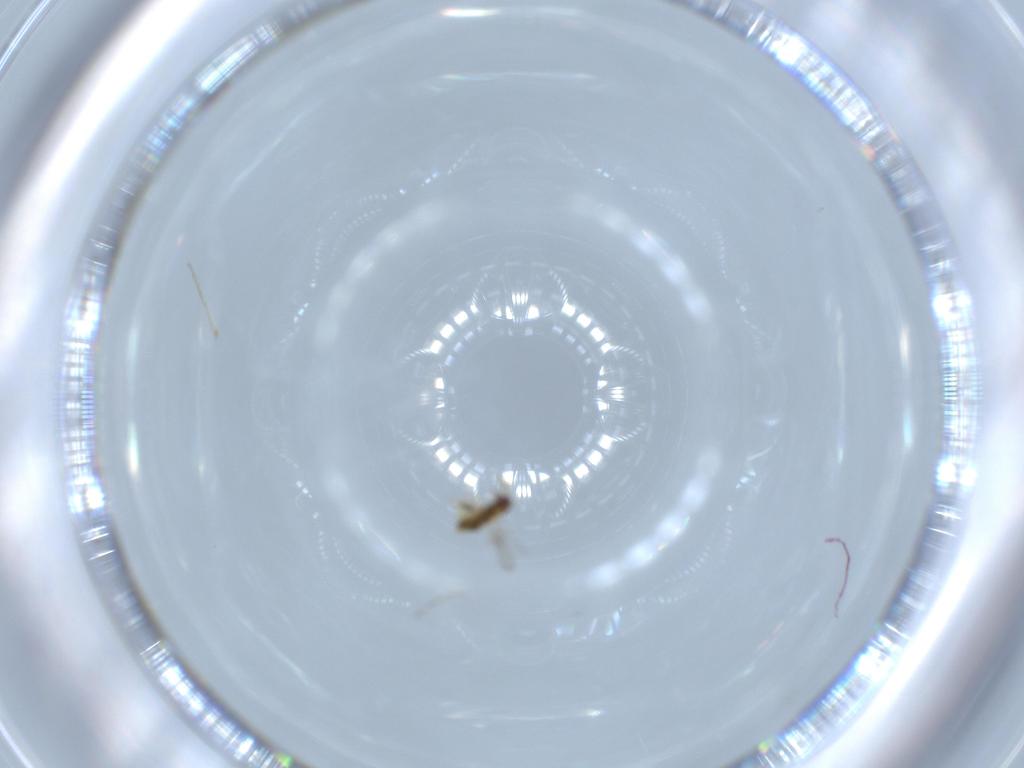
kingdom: Animalia
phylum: Arthropoda
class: Insecta
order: Hymenoptera
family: Aphelinidae
